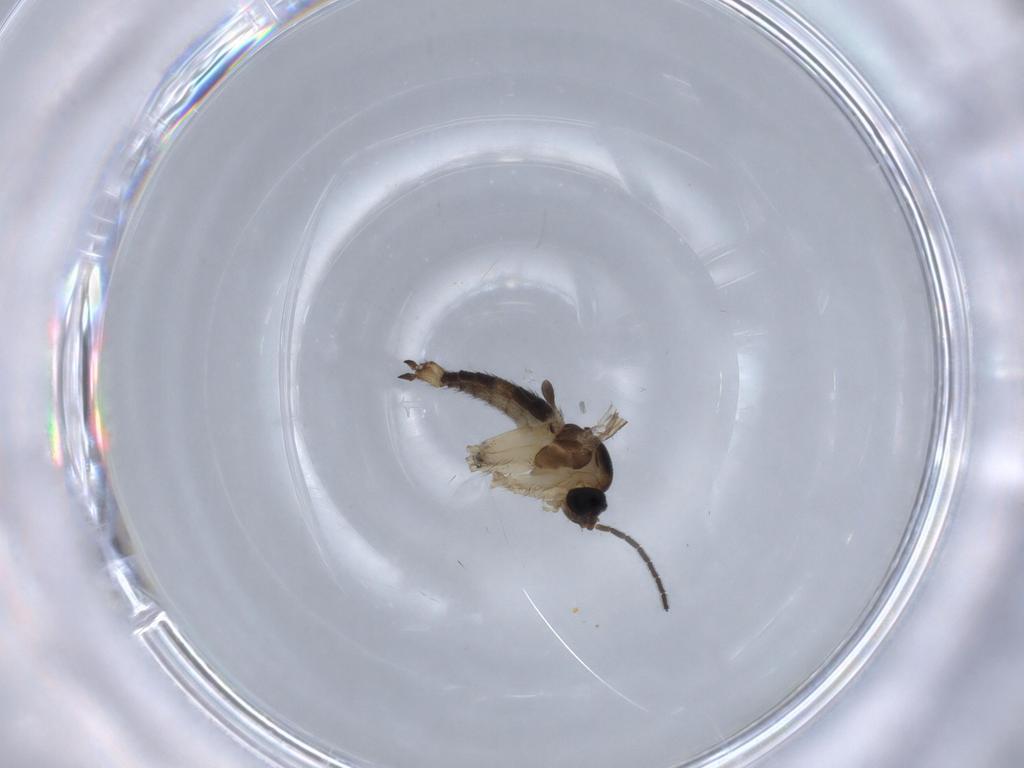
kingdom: Animalia
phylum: Arthropoda
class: Insecta
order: Diptera
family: Sciaridae
